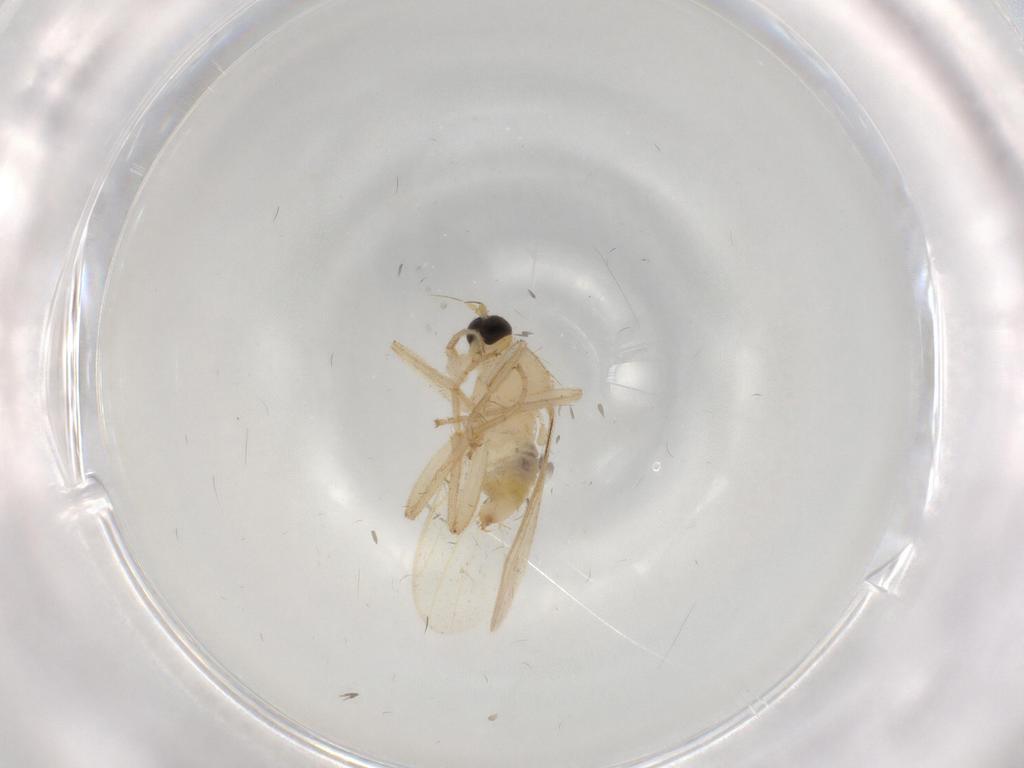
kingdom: Animalia
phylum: Arthropoda
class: Insecta
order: Diptera
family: Hybotidae
